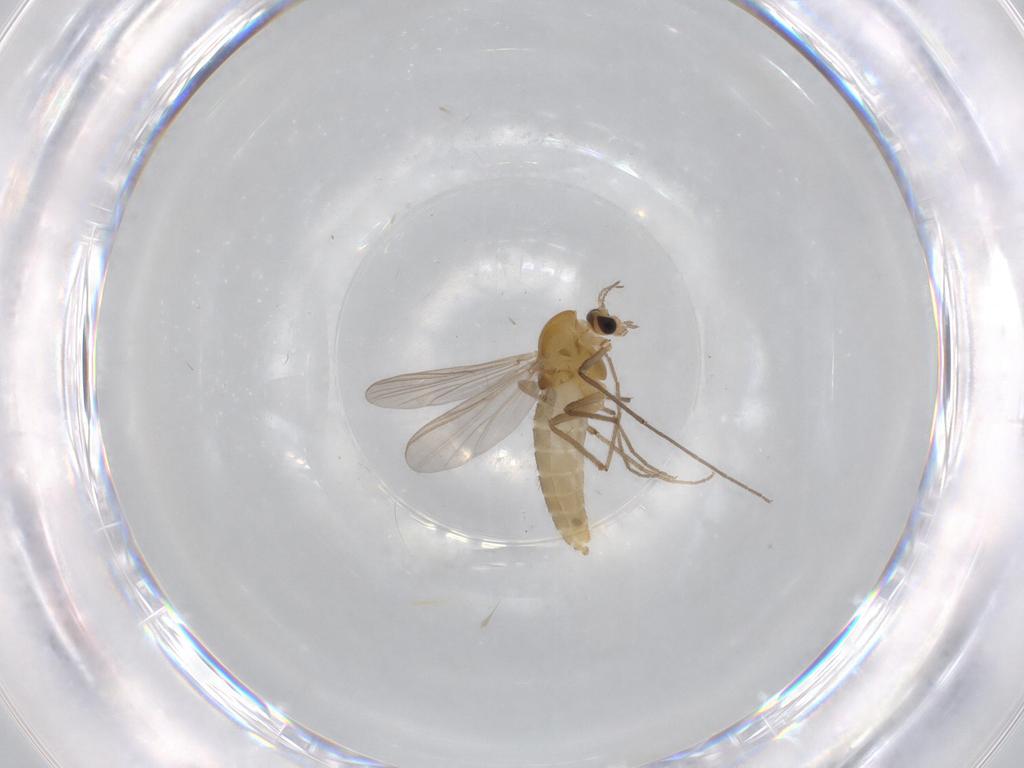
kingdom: Animalia
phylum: Arthropoda
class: Insecta
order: Diptera
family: Chironomidae
